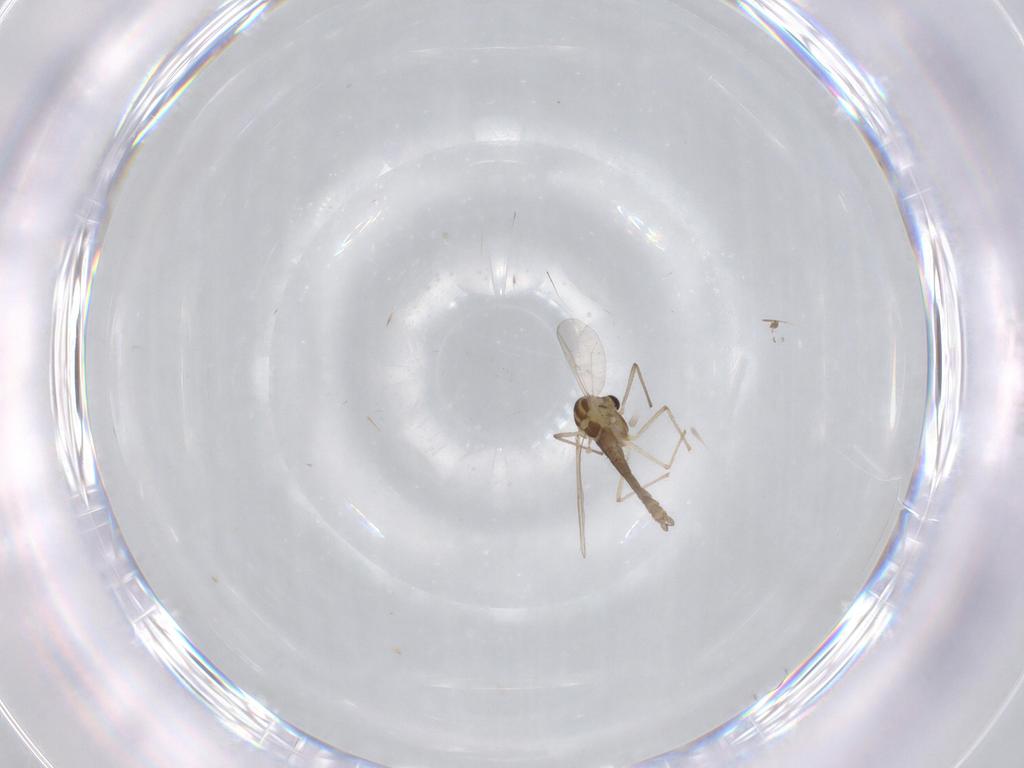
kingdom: Animalia
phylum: Arthropoda
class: Insecta
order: Diptera
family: Chironomidae
